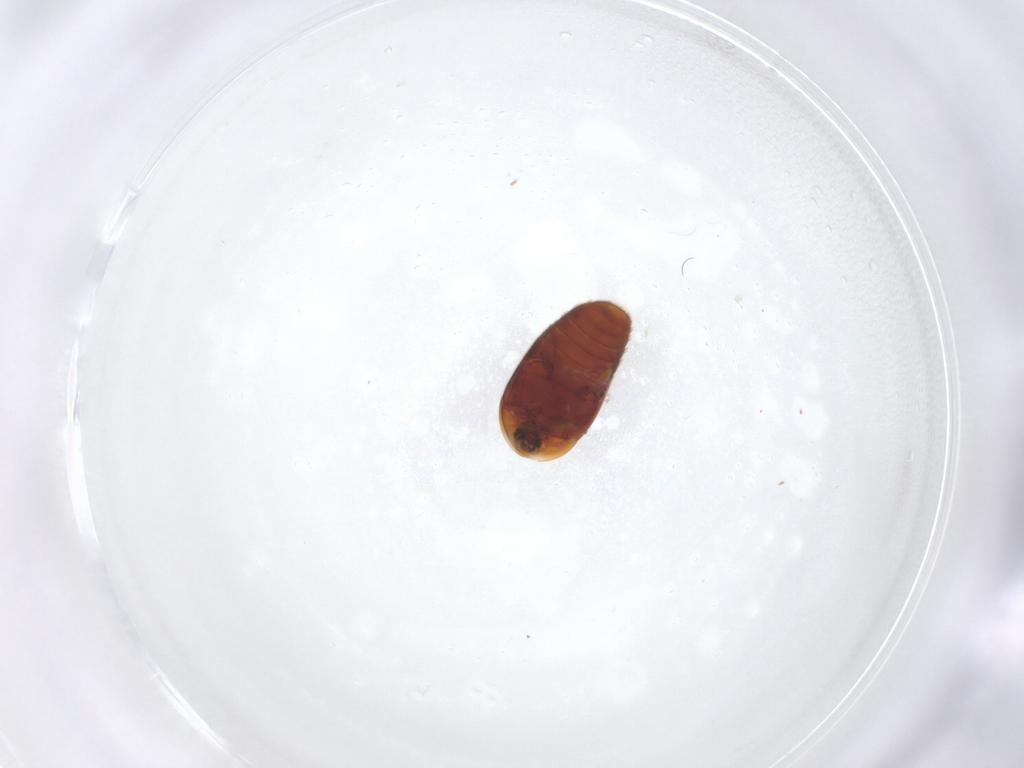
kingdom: Animalia
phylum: Arthropoda
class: Insecta
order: Coleoptera
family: Corylophidae
